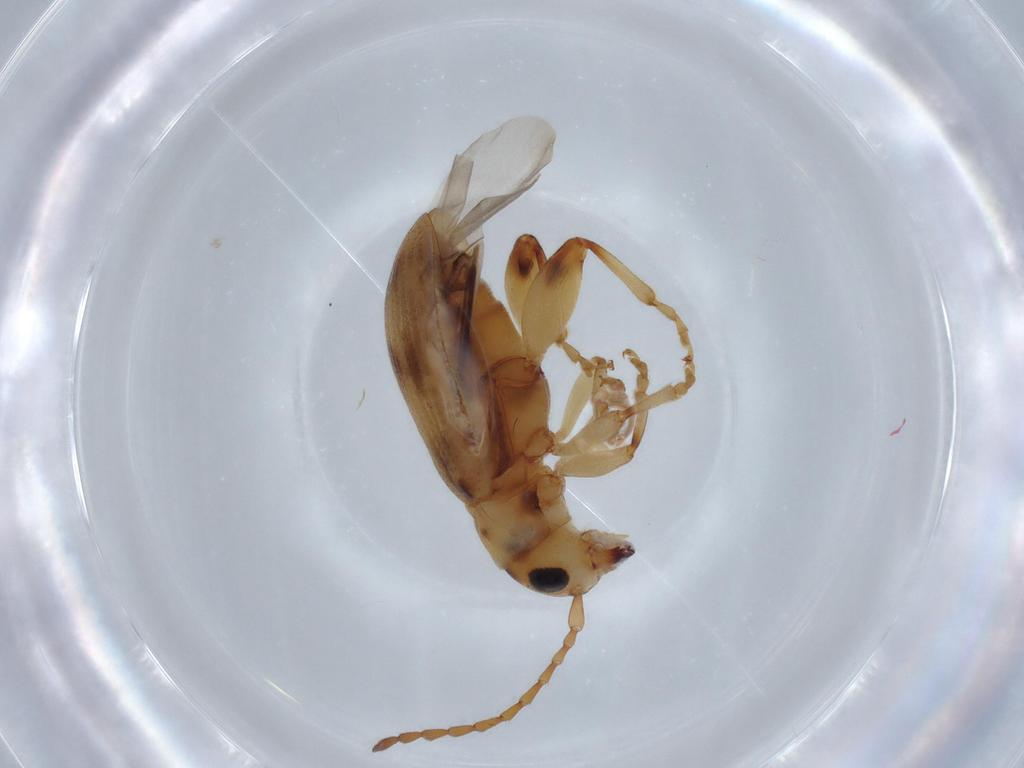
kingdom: Animalia
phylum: Arthropoda
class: Insecta
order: Coleoptera
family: Chrysomelidae
